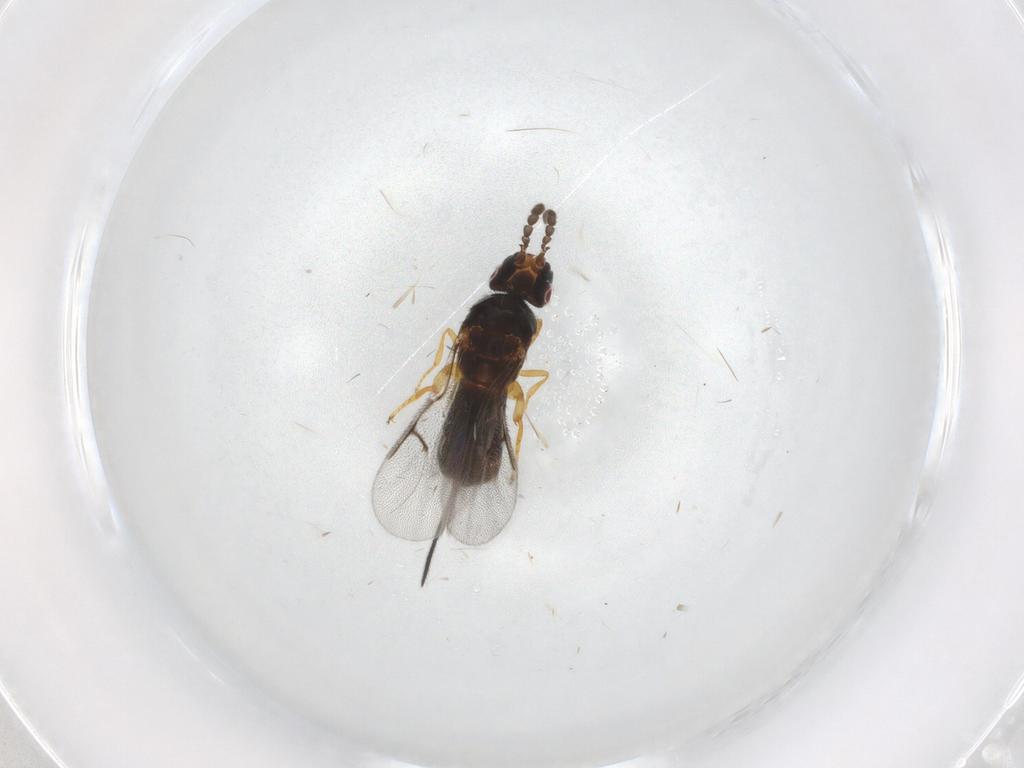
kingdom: Animalia
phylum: Arthropoda
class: Insecta
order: Hymenoptera
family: Agaonidae
